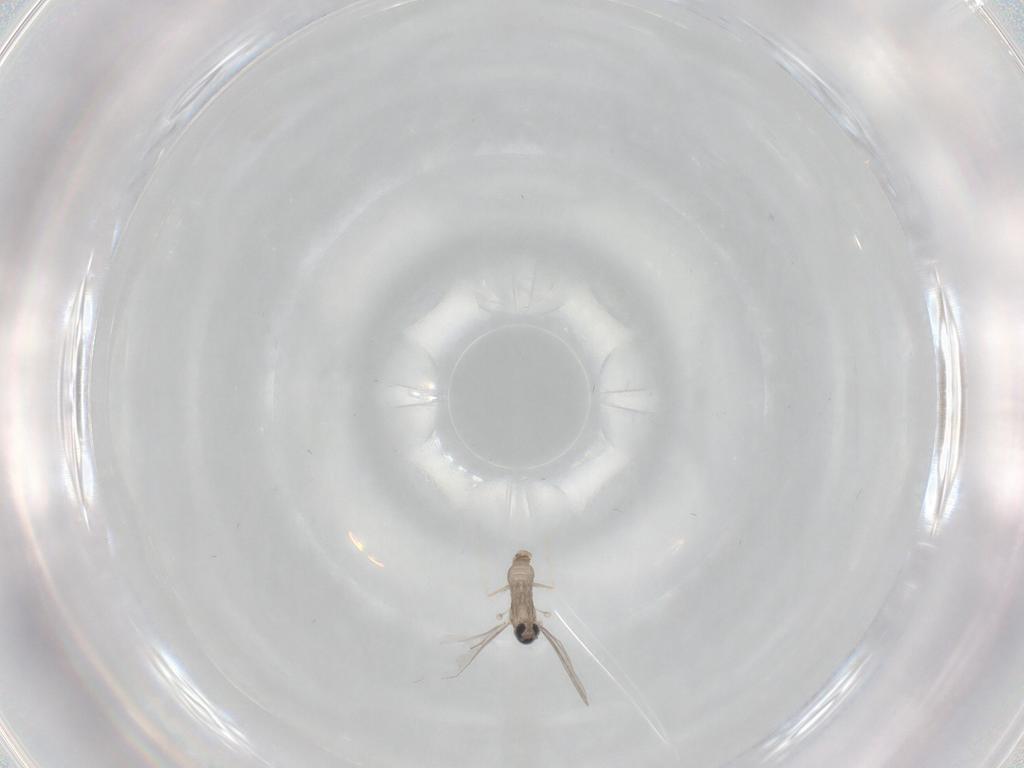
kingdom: Animalia
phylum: Arthropoda
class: Insecta
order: Diptera
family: Cecidomyiidae
